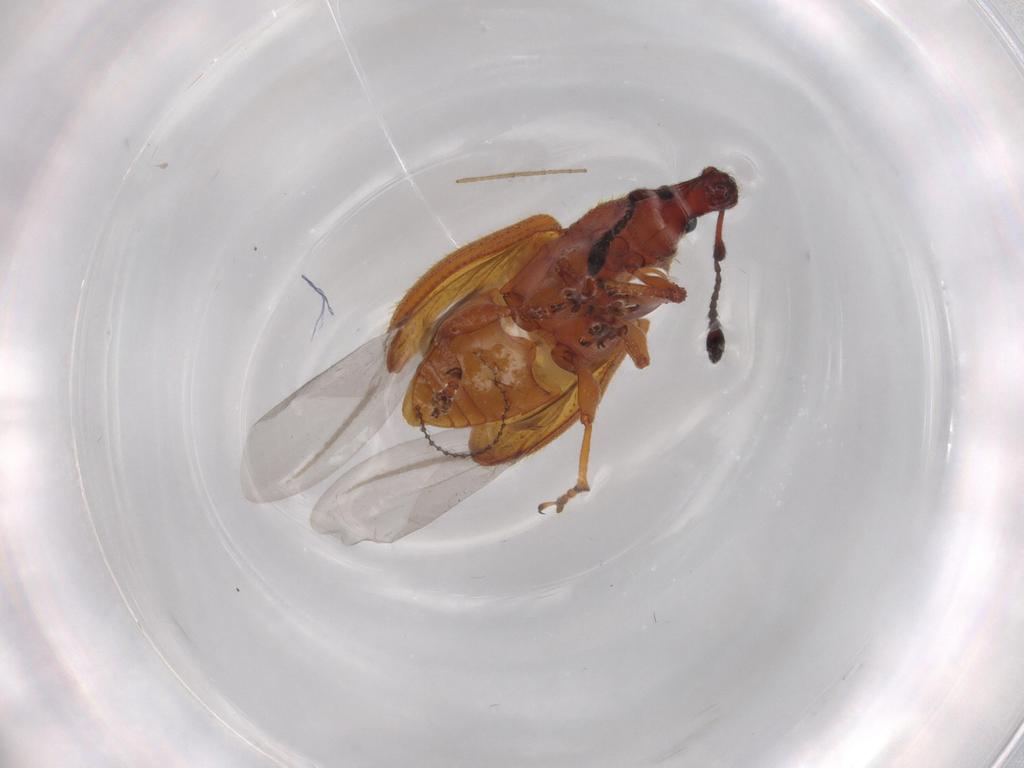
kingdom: Animalia
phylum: Arthropoda
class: Insecta
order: Coleoptera
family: Curculionidae
